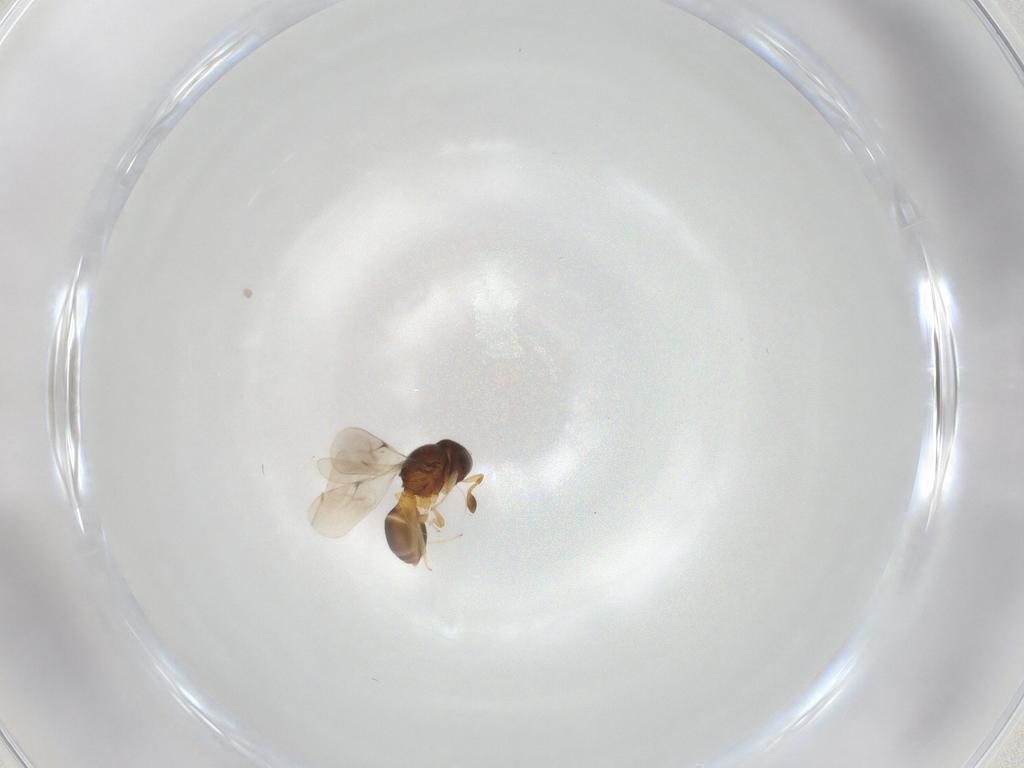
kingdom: Animalia
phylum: Arthropoda
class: Insecta
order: Hymenoptera
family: Scelionidae
